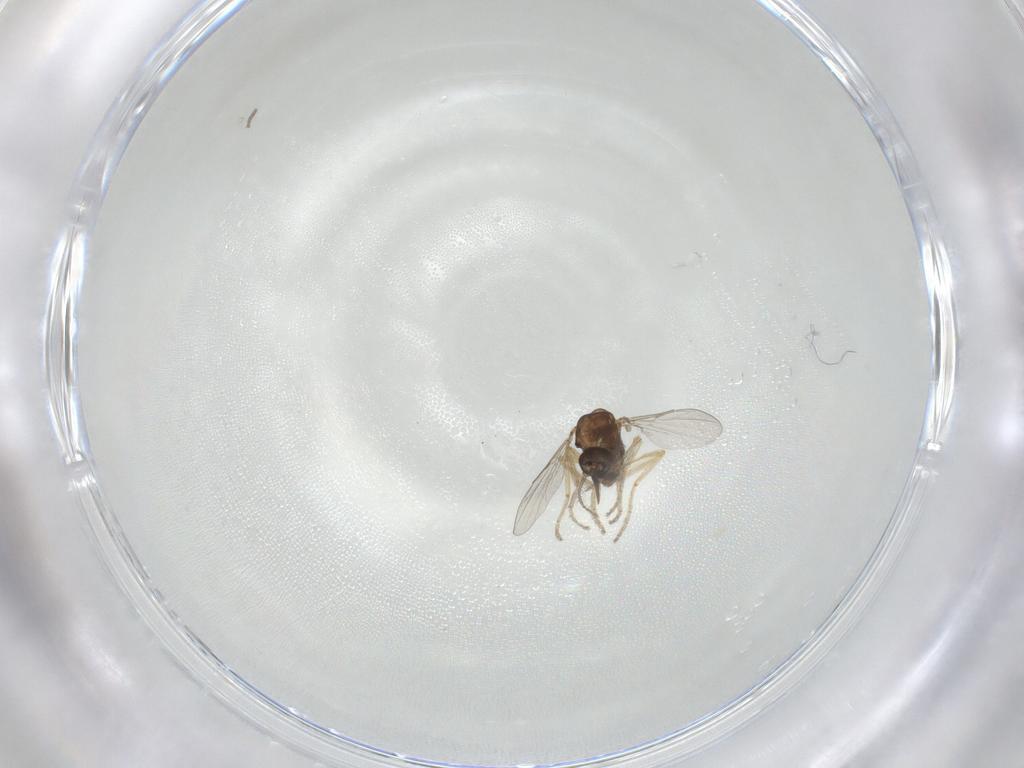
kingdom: Animalia
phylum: Arthropoda
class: Insecta
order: Diptera
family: Ceratopogonidae
